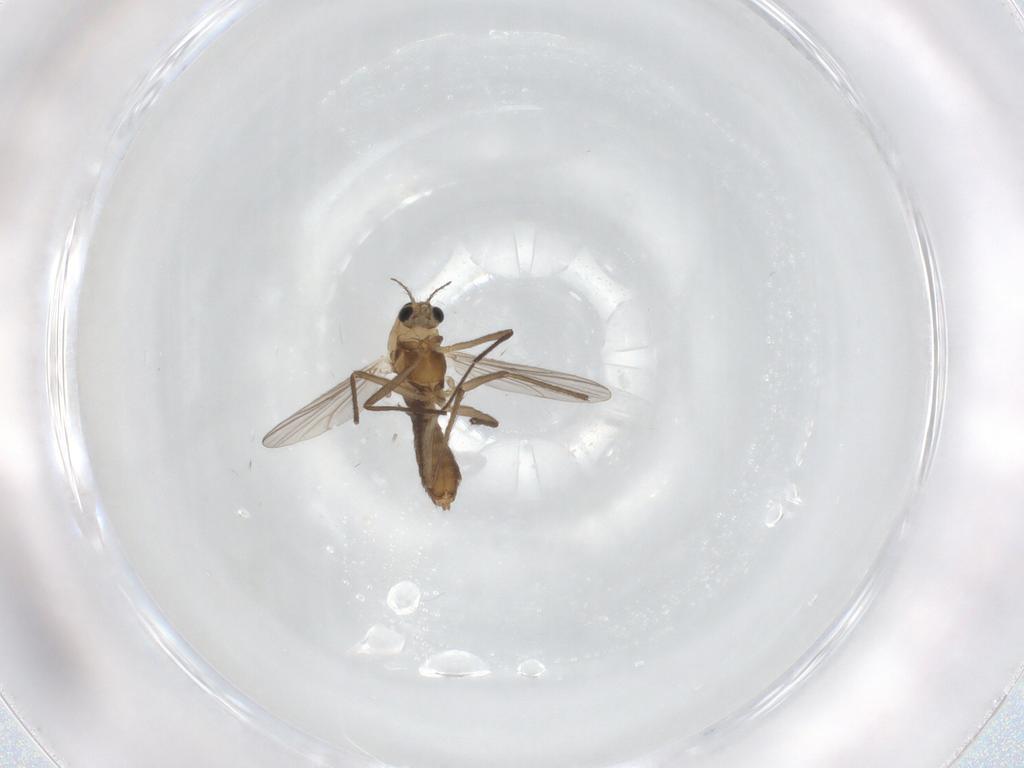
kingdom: Animalia
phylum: Arthropoda
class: Insecta
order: Diptera
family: Chironomidae
